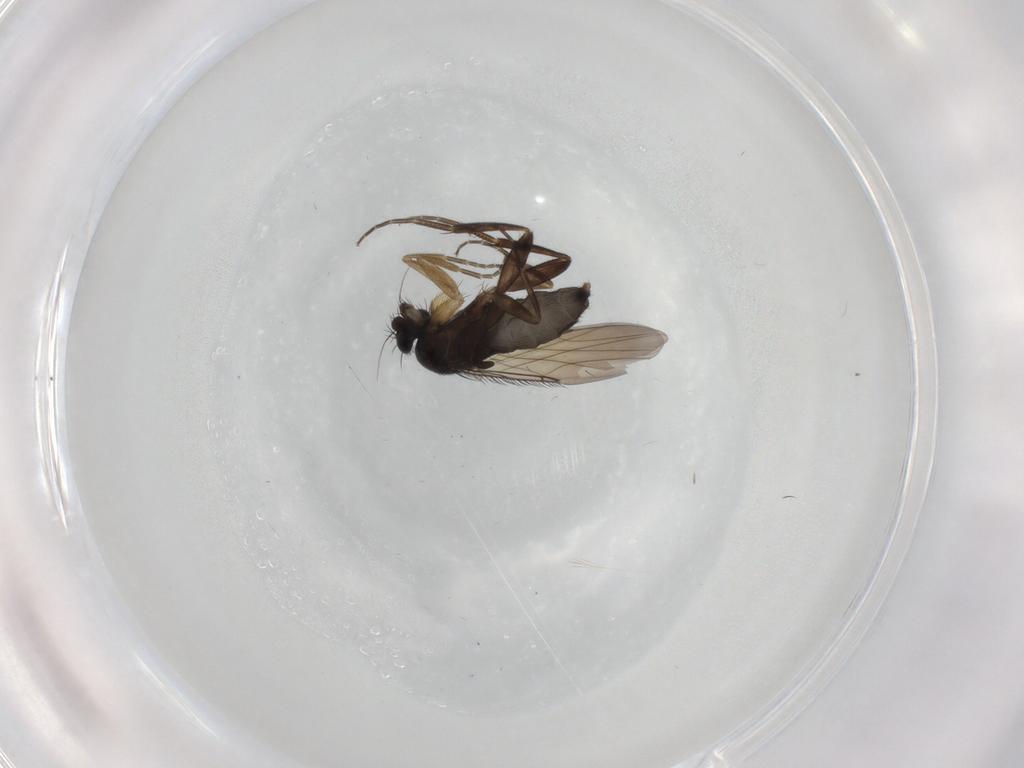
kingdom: Animalia
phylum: Arthropoda
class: Insecta
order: Diptera
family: Phoridae
